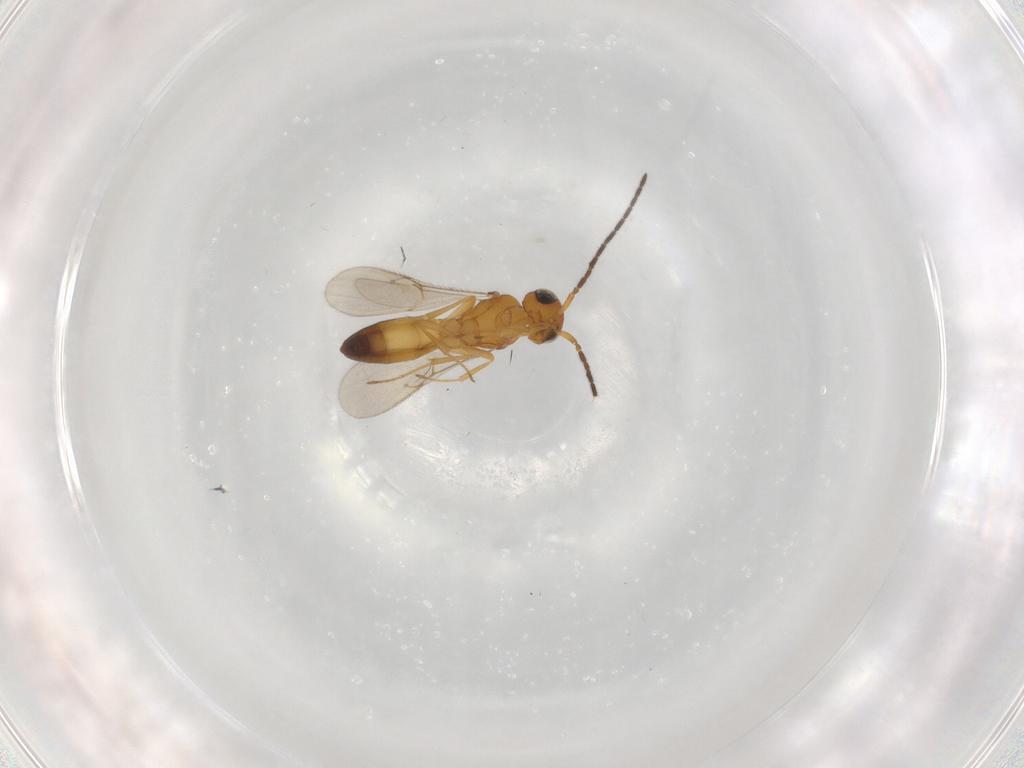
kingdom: Animalia
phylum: Arthropoda
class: Insecta
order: Hymenoptera
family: Scelionidae
